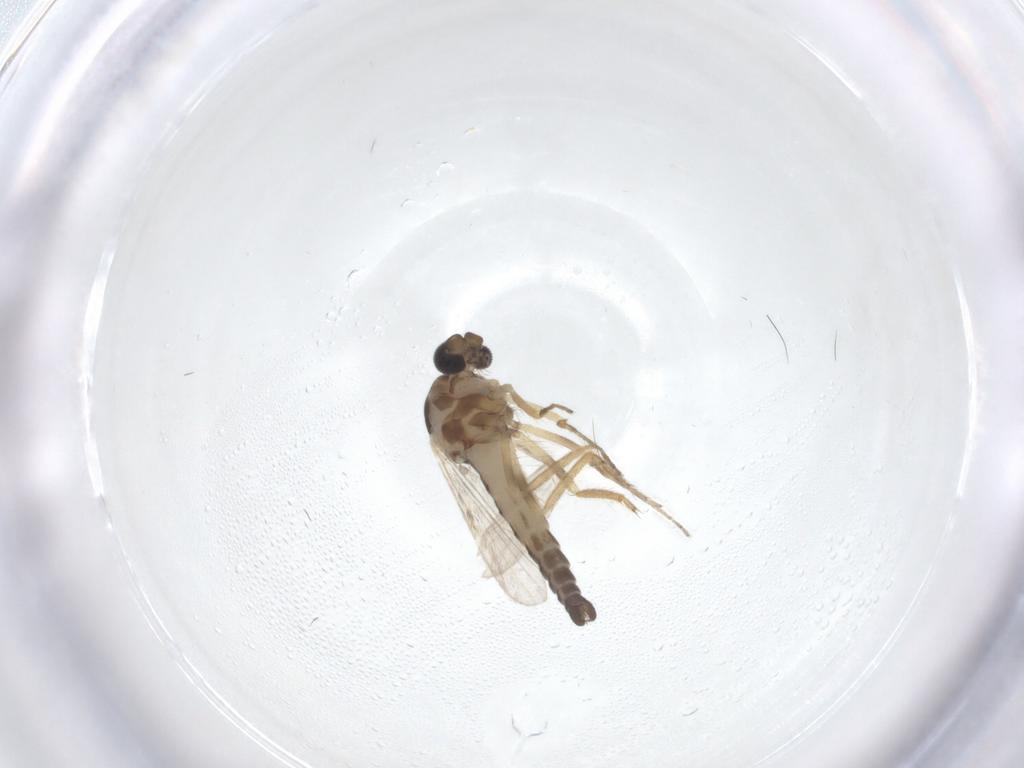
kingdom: Animalia
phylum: Arthropoda
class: Insecta
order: Diptera
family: Ceratopogonidae
